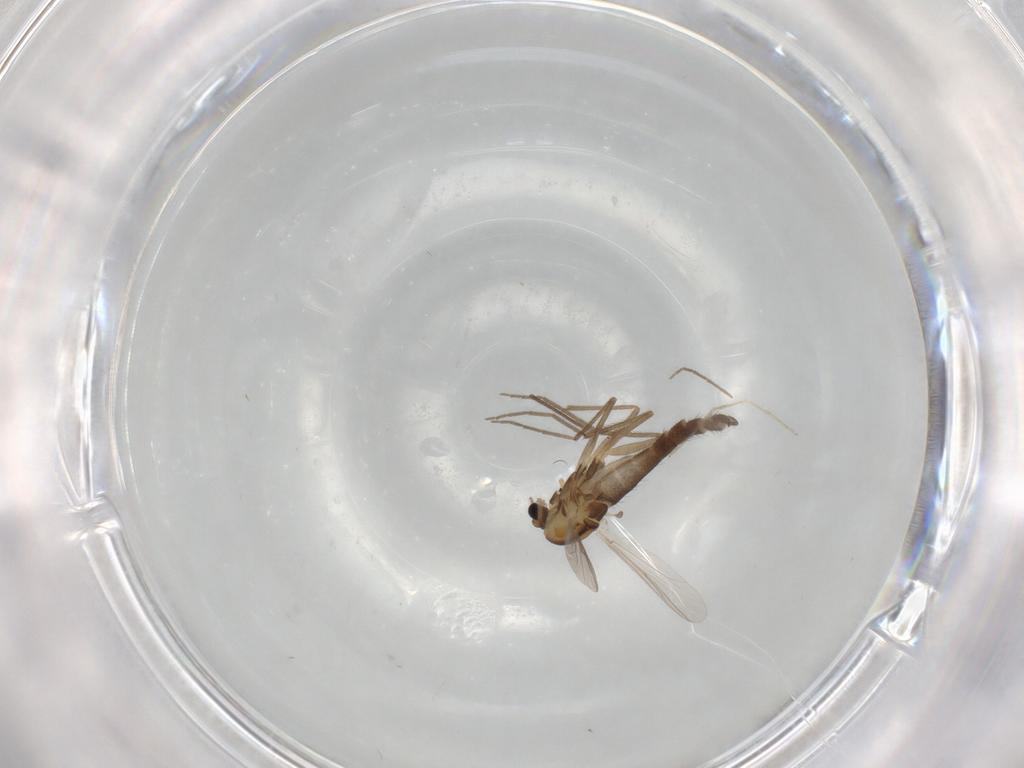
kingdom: Animalia
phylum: Arthropoda
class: Insecta
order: Diptera
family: Chironomidae
